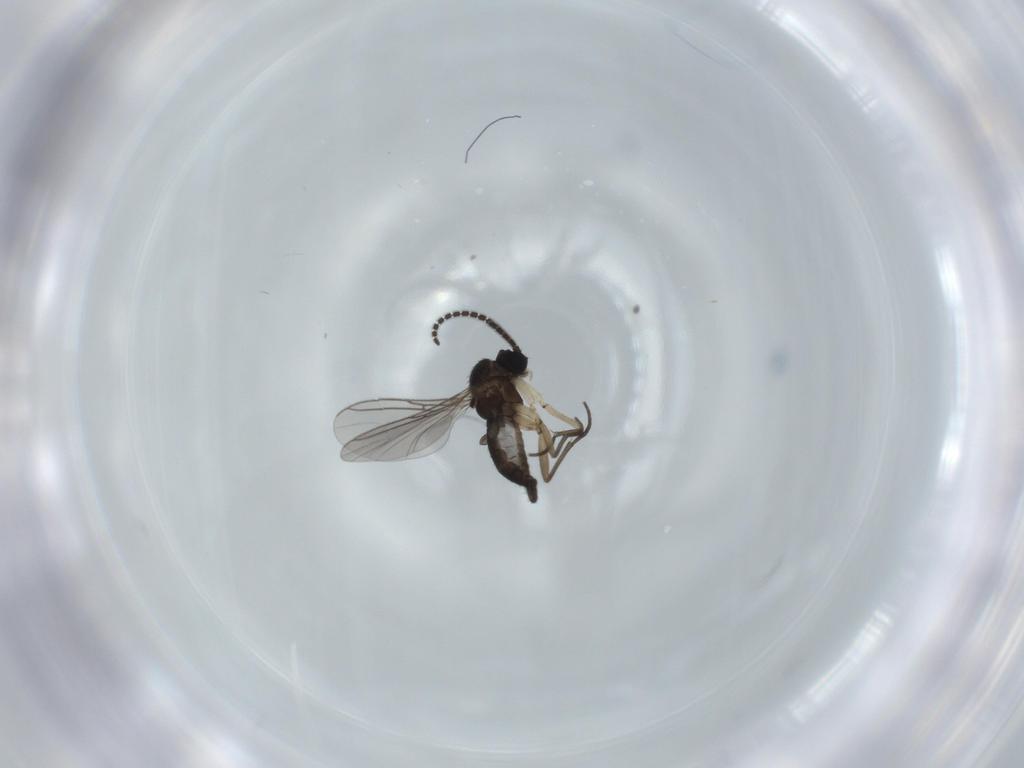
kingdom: Animalia
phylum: Arthropoda
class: Insecta
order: Diptera
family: Sciaridae
